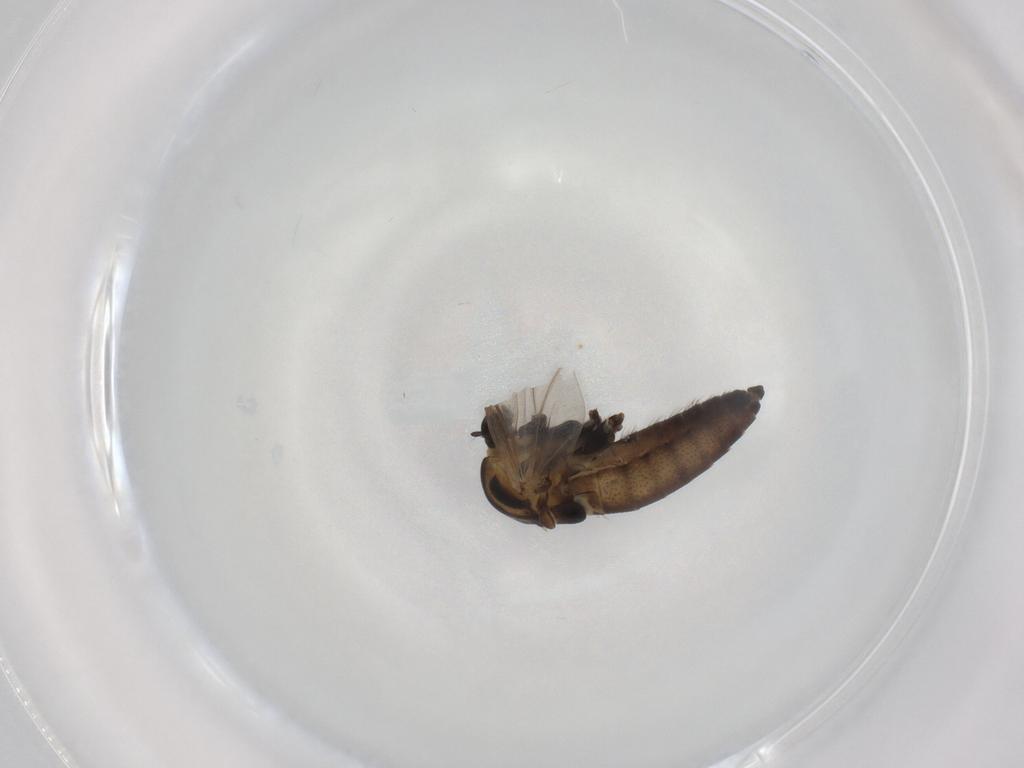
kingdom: Animalia
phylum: Arthropoda
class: Insecta
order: Diptera
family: Chironomidae
